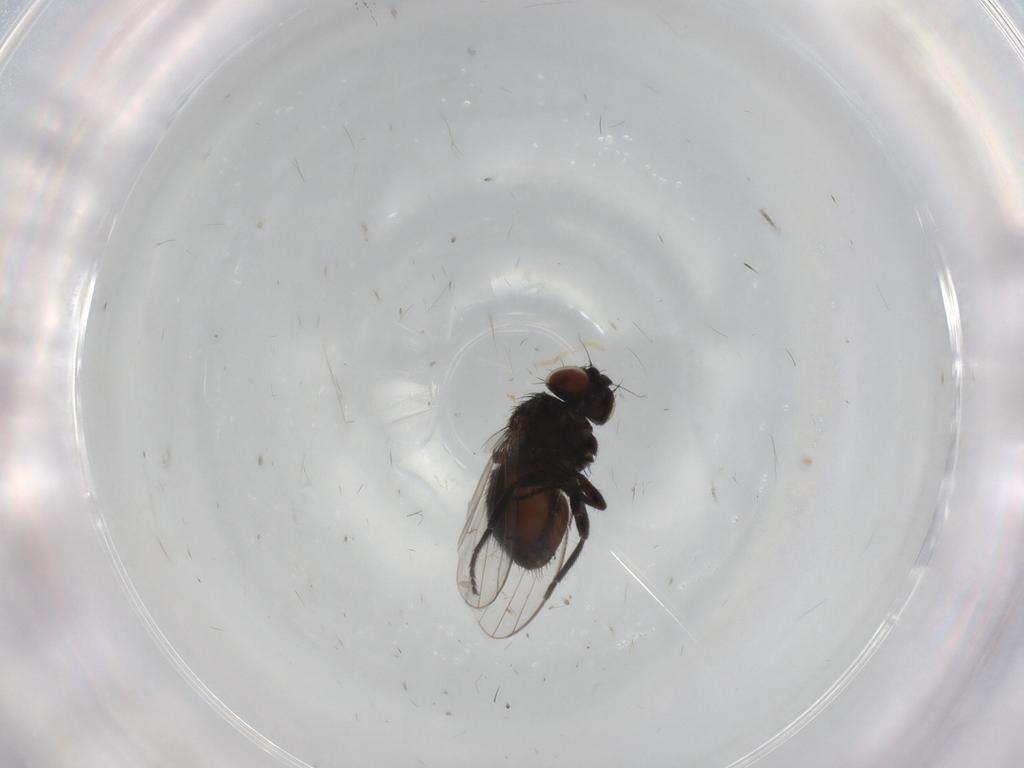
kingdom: Animalia
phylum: Arthropoda
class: Insecta
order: Diptera
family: Milichiidae
